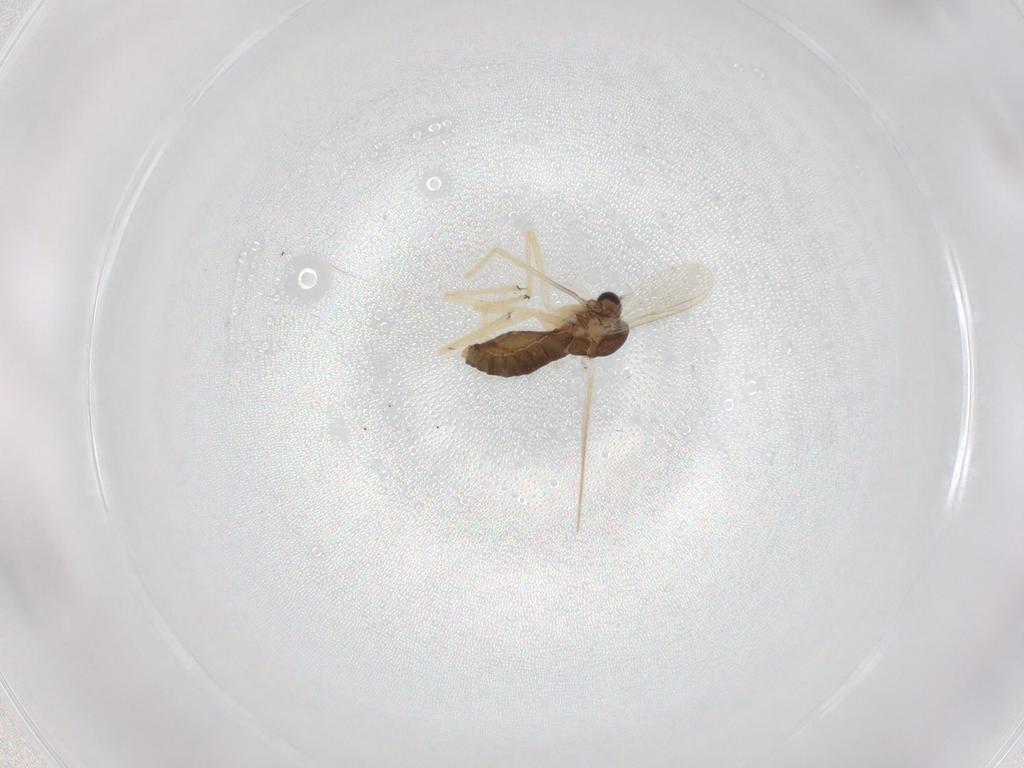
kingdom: Animalia
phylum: Arthropoda
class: Insecta
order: Diptera
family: Chironomidae
